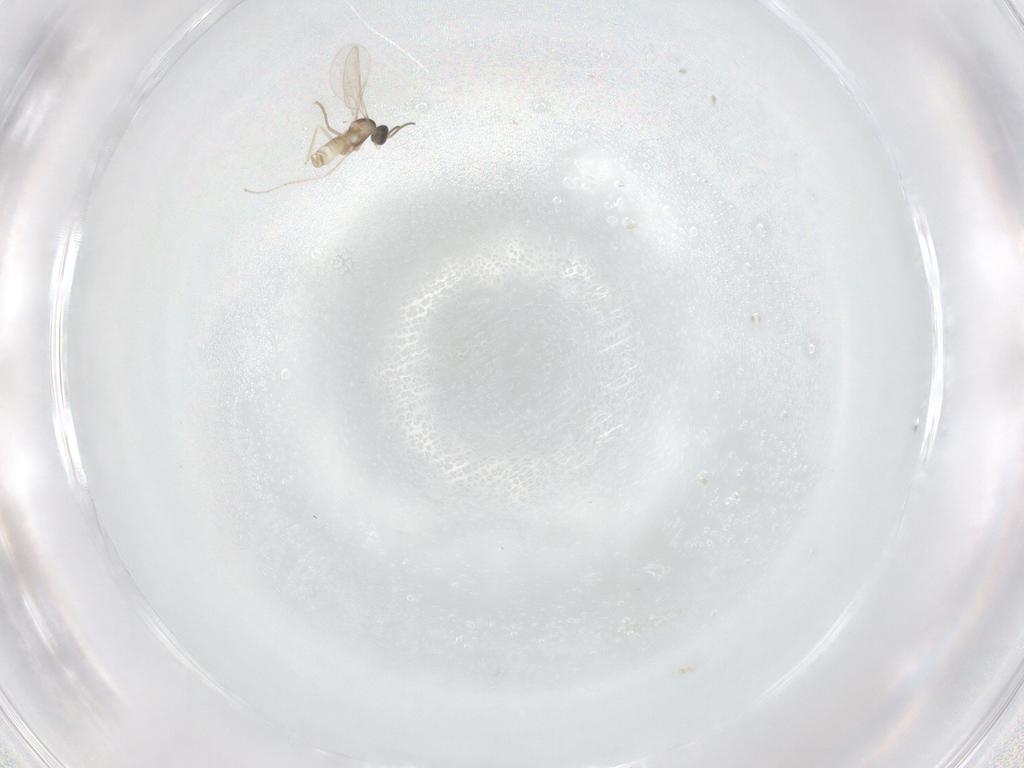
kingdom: Animalia
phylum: Arthropoda
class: Insecta
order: Diptera
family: Cecidomyiidae
